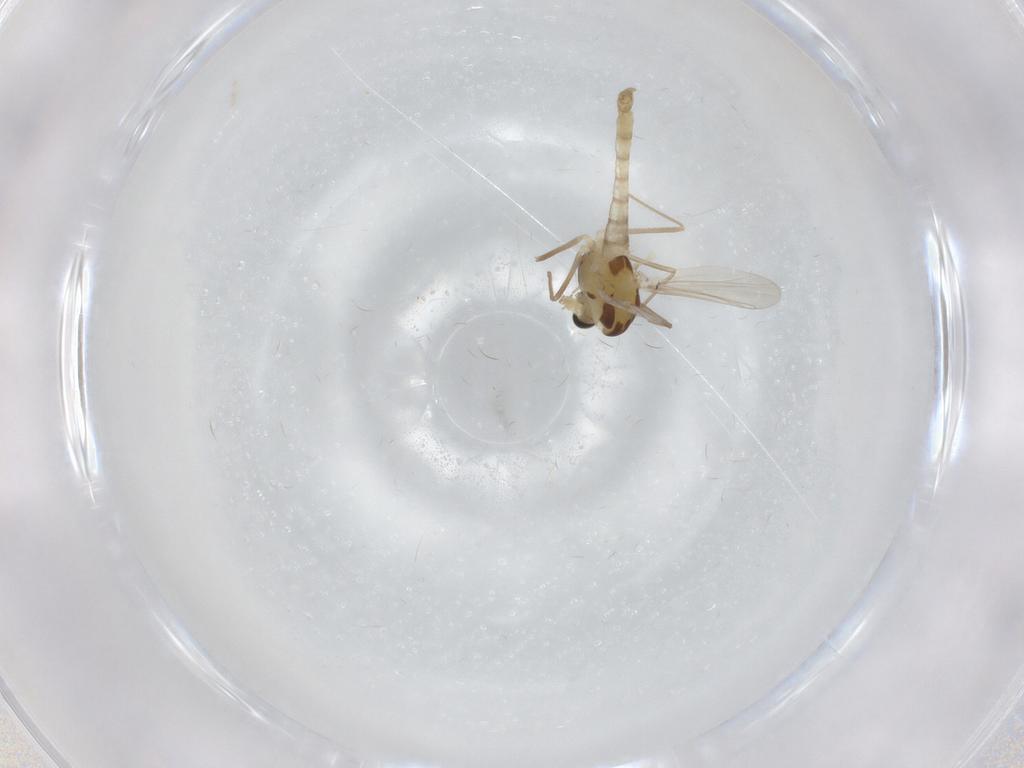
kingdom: Animalia
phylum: Arthropoda
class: Insecta
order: Diptera
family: Chironomidae
